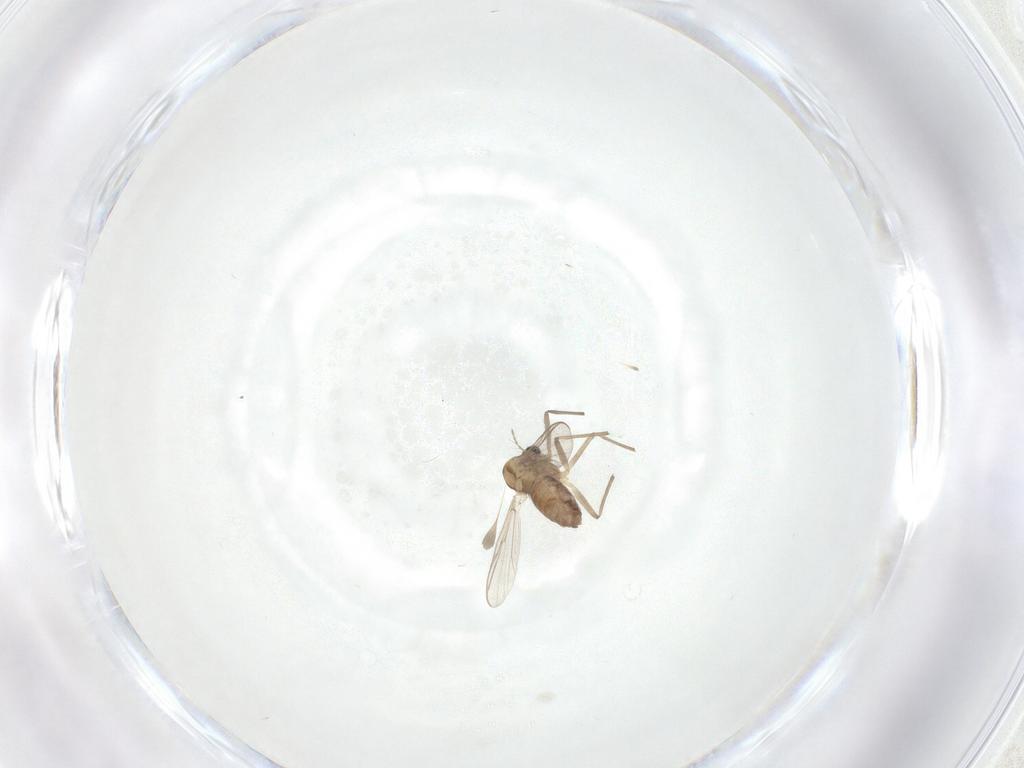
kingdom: Animalia
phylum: Arthropoda
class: Insecta
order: Diptera
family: Chironomidae
